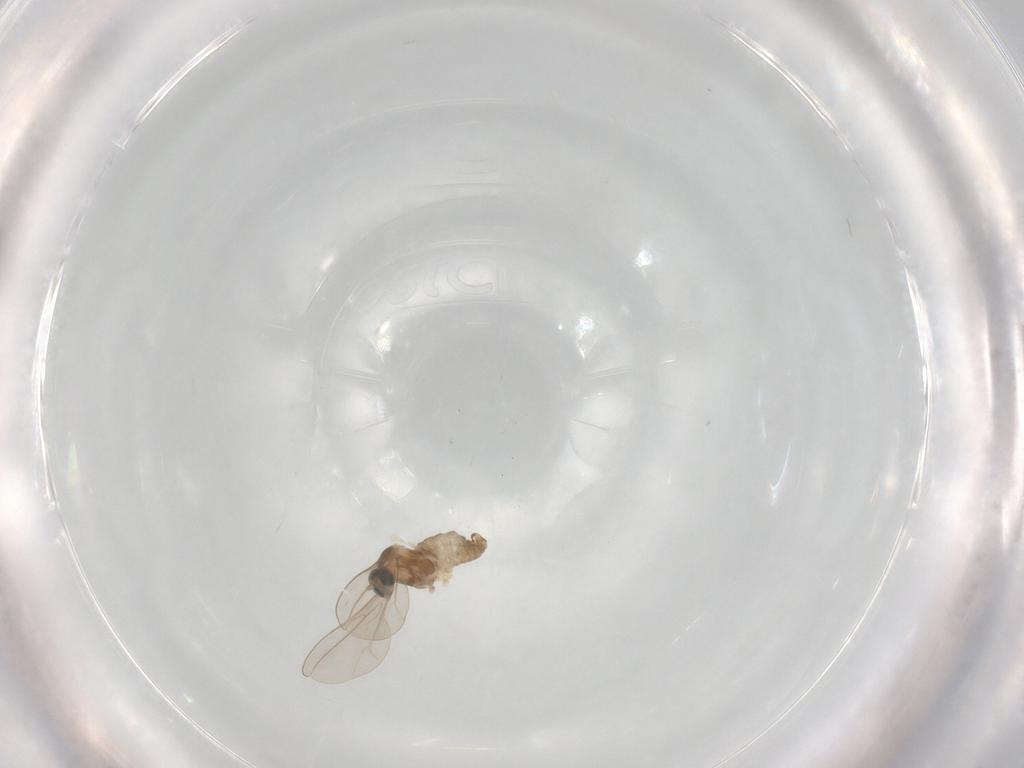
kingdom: Animalia
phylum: Arthropoda
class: Insecta
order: Diptera
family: Cecidomyiidae
